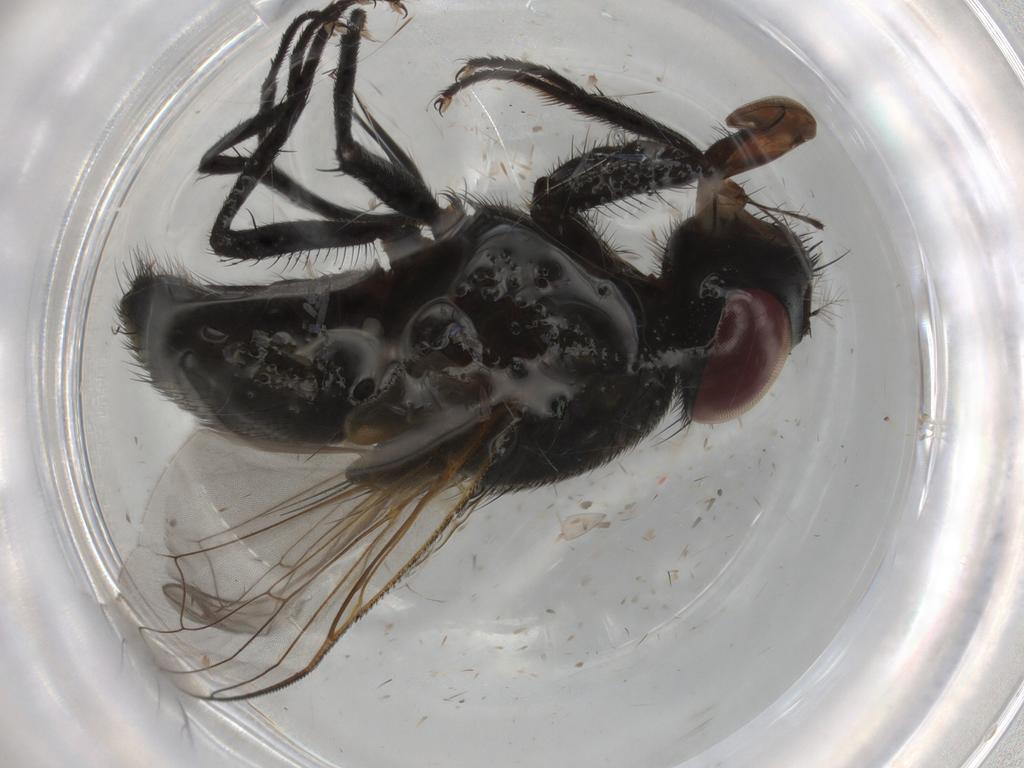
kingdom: Animalia
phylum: Arthropoda
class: Insecta
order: Diptera
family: Muscidae
